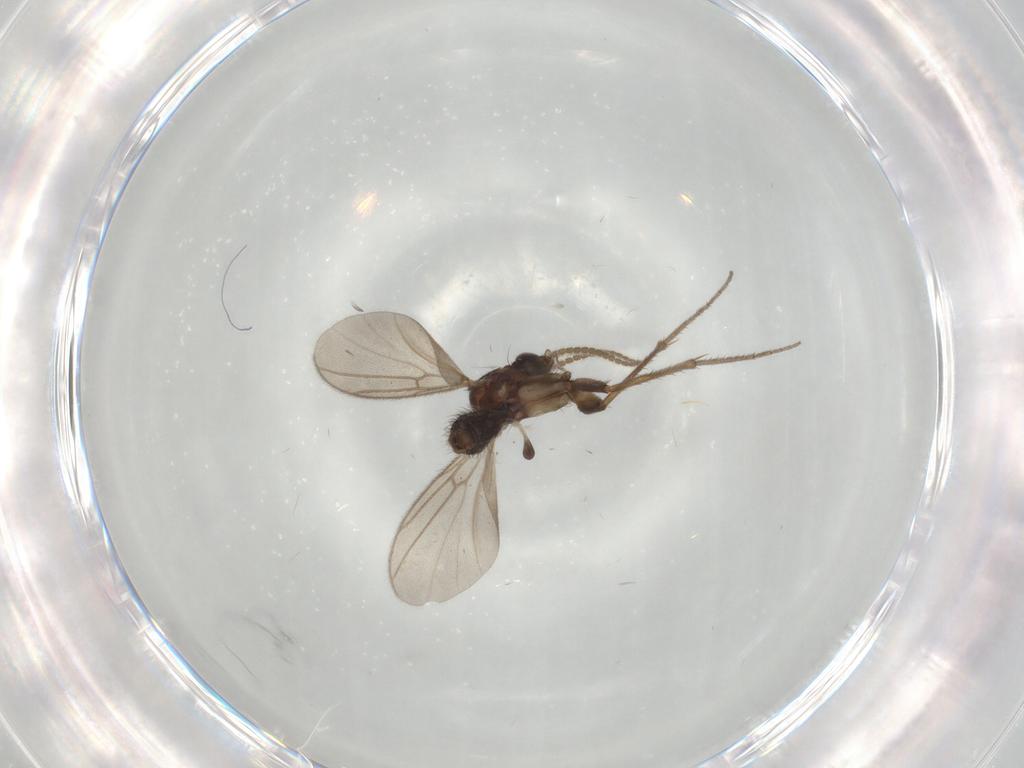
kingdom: Animalia
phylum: Arthropoda
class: Insecta
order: Diptera
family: Mycetophilidae
